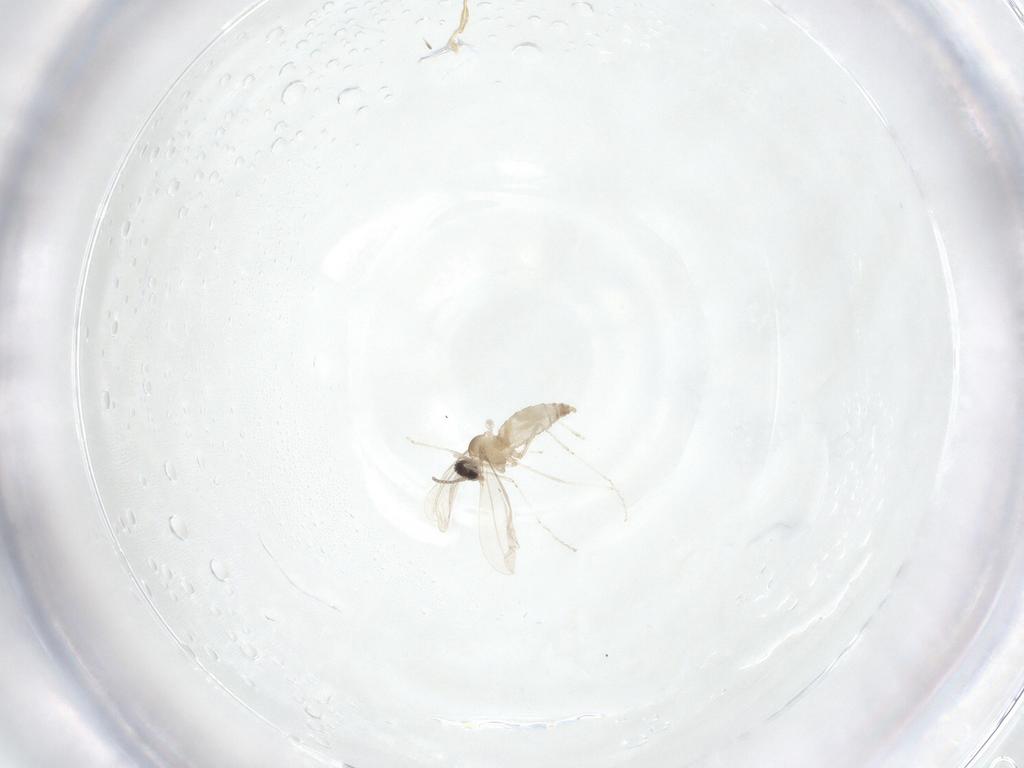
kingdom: Animalia
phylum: Arthropoda
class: Insecta
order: Diptera
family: Cecidomyiidae
